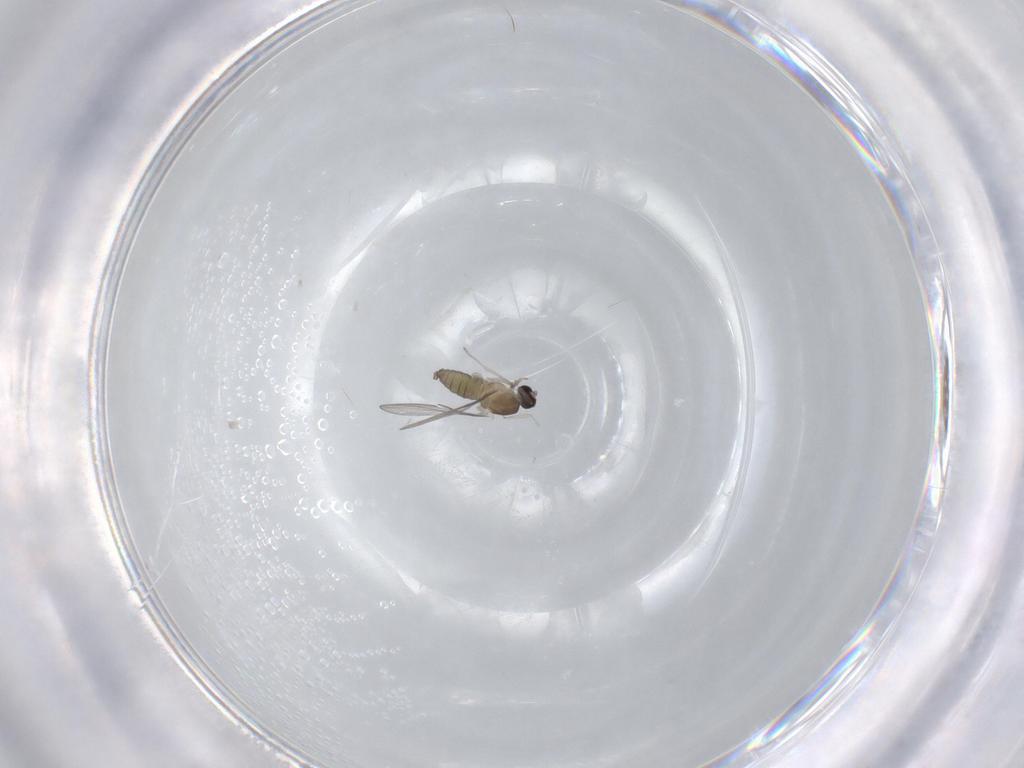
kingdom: Animalia
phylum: Arthropoda
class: Insecta
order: Diptera
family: Cecidomyiidae
